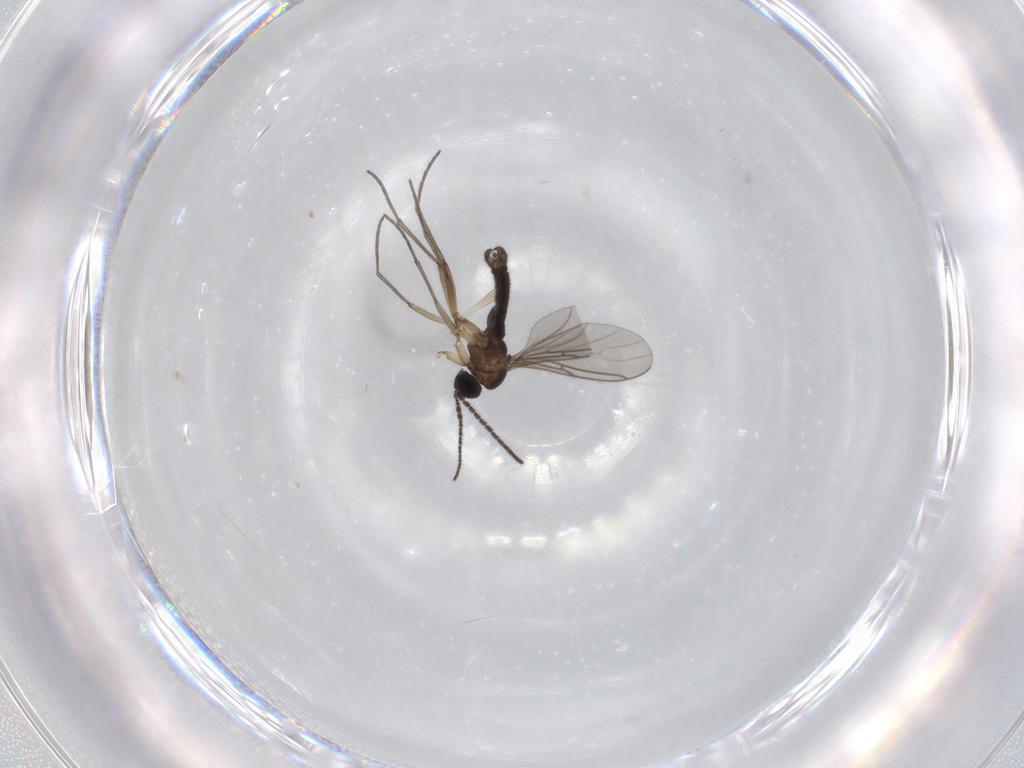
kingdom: Animalia
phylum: Arthropoda
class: Insecta
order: Diptera
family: Sciaridae
